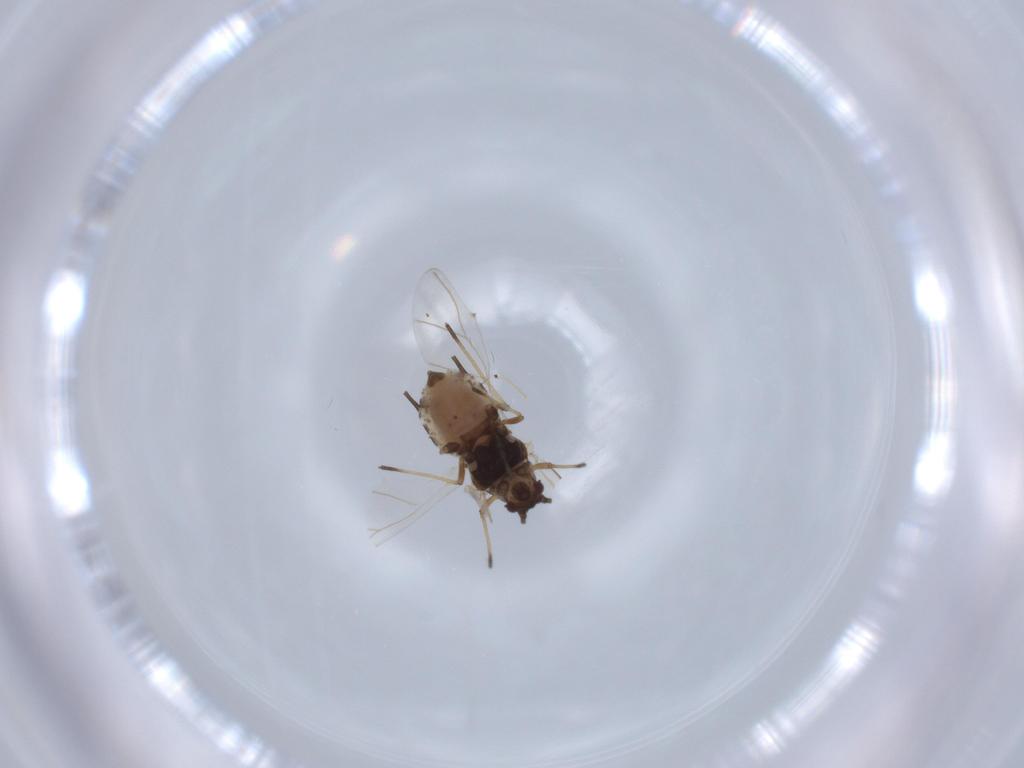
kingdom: Animalia
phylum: Arthropoda
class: Insecta
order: Hemiptera
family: Aphididae
